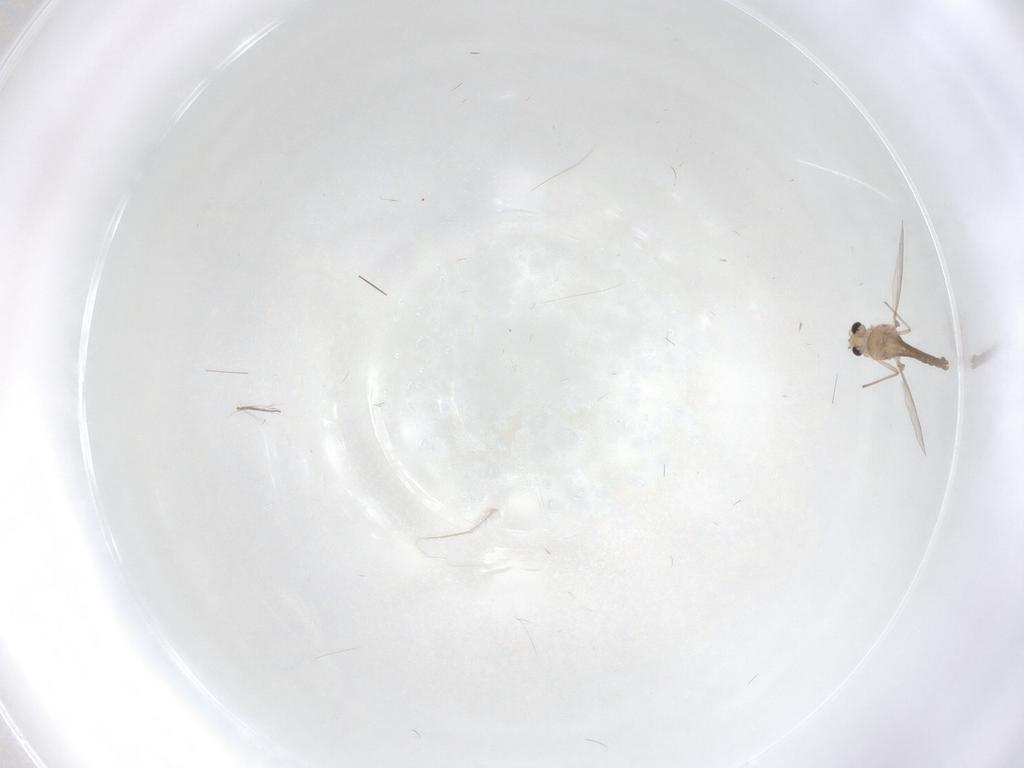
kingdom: Animalia
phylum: Arthropoda
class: Insecta
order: Diptera
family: Chironomidae
